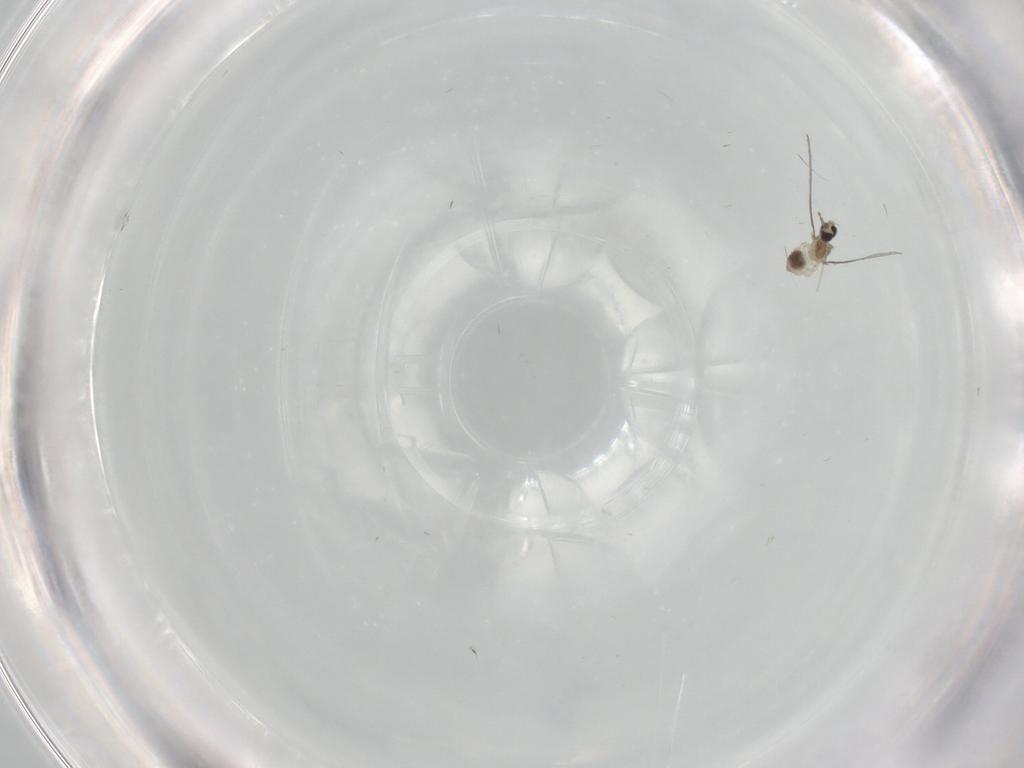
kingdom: Animalia
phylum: Arthropoda
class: Insecta
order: Diptera
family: Cecidomyiidae
